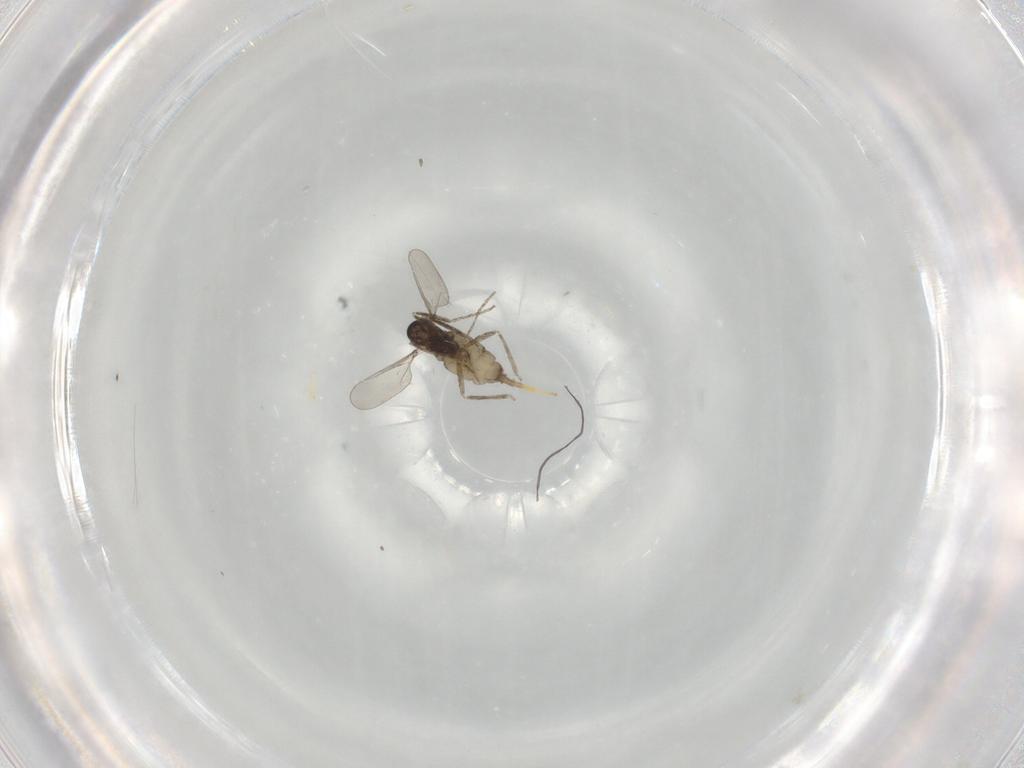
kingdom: Animalia
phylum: Arthropoda
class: Insecta
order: Diptera
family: Cecidomyiidae
